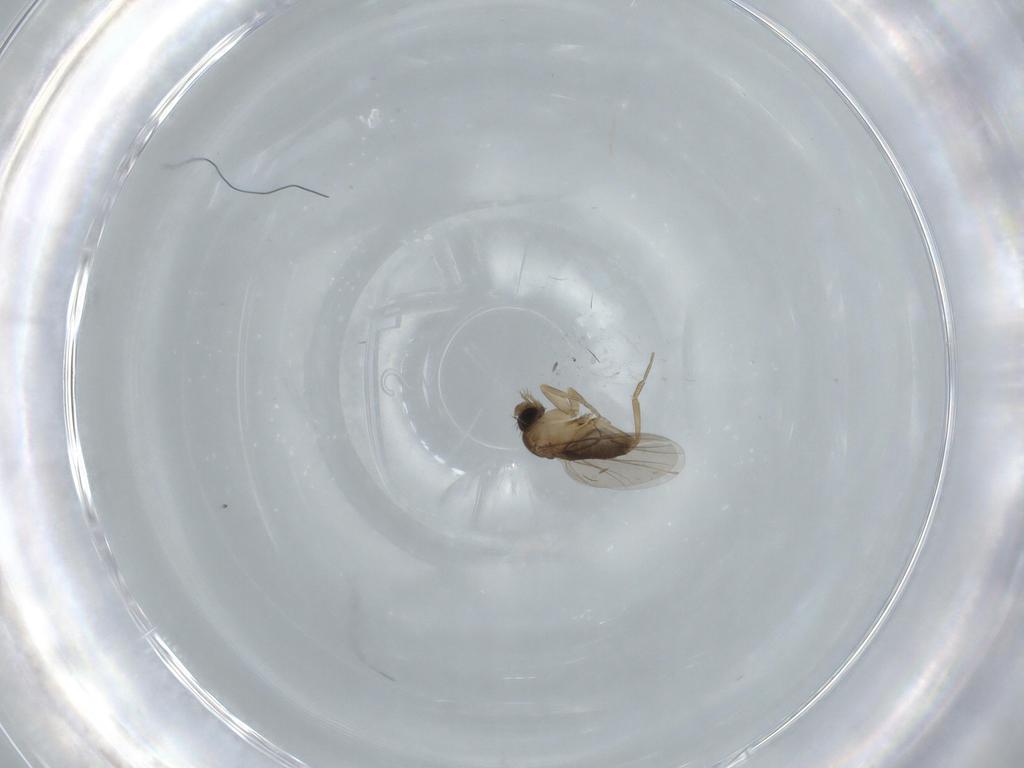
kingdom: Animalia
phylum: Arthropoda
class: Insecta
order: Diptera
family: Phoridae
